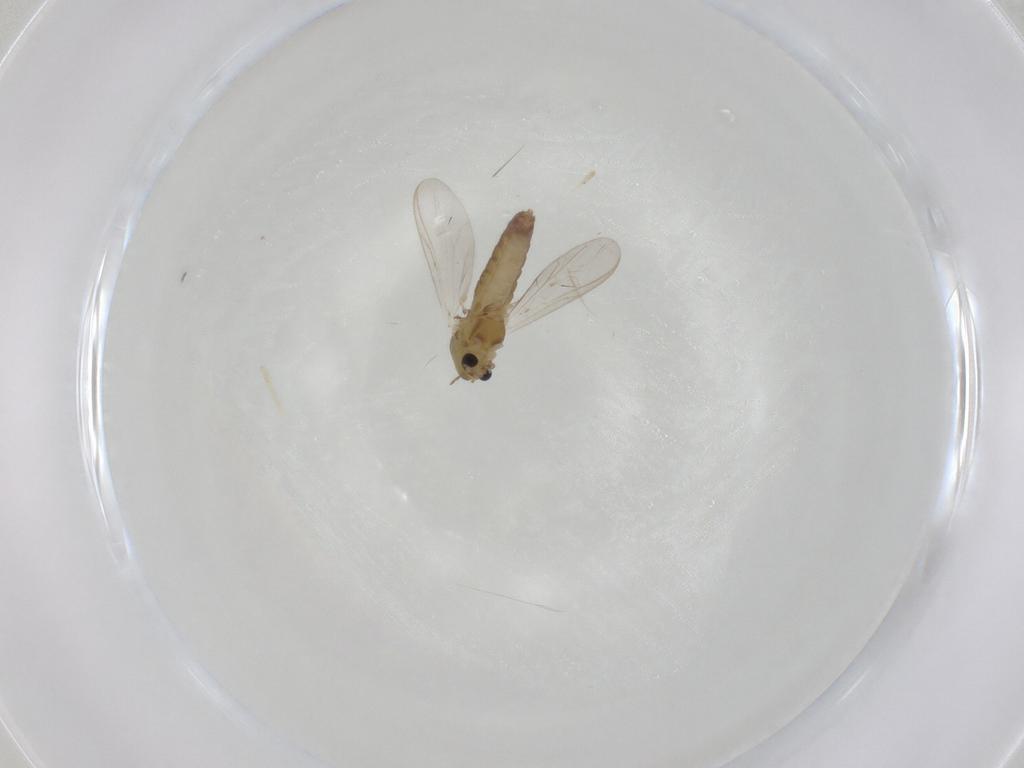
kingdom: Animalia
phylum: Arthropoda
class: Insecta
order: Diptera
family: Chironomidae
